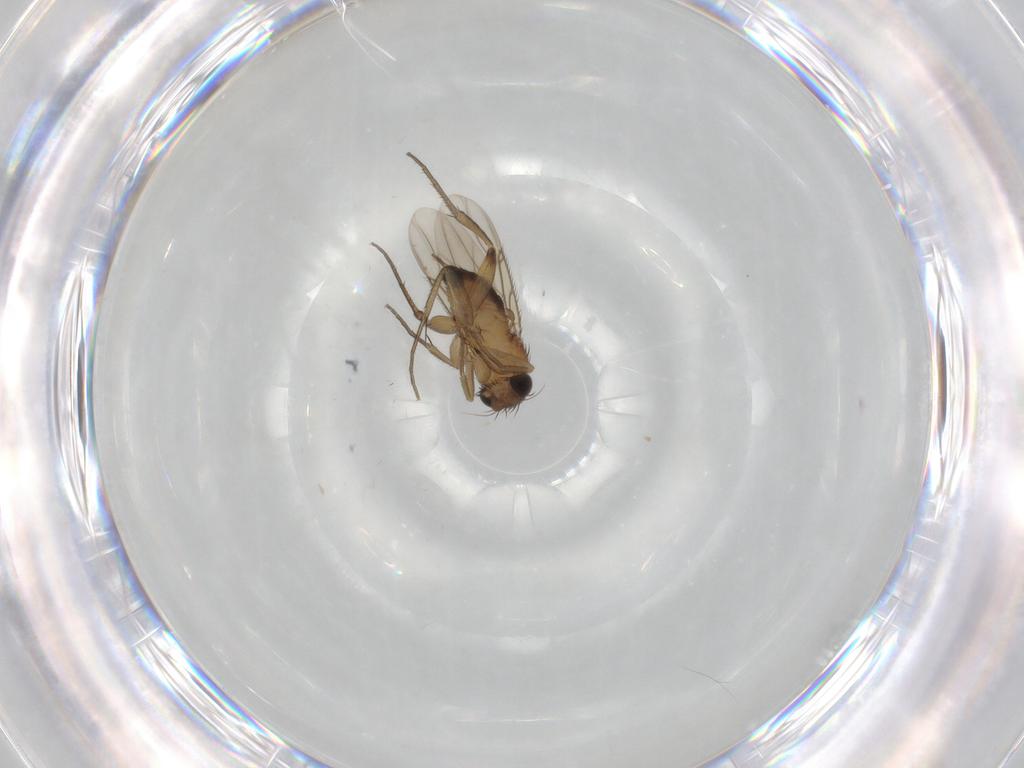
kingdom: Animalia
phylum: Arthropoda
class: Insecta
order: Diptera
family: Phoridae
